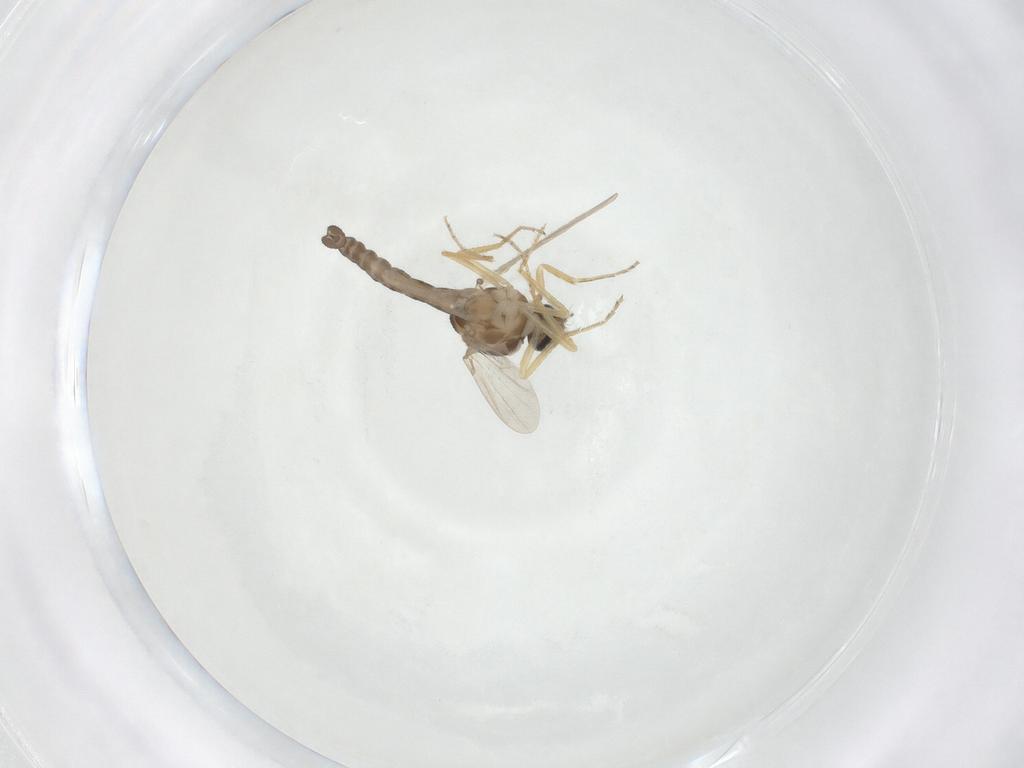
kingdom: Animalia
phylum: Arthropoda
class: Insecta
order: Diptera
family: Ceratopogonidae
